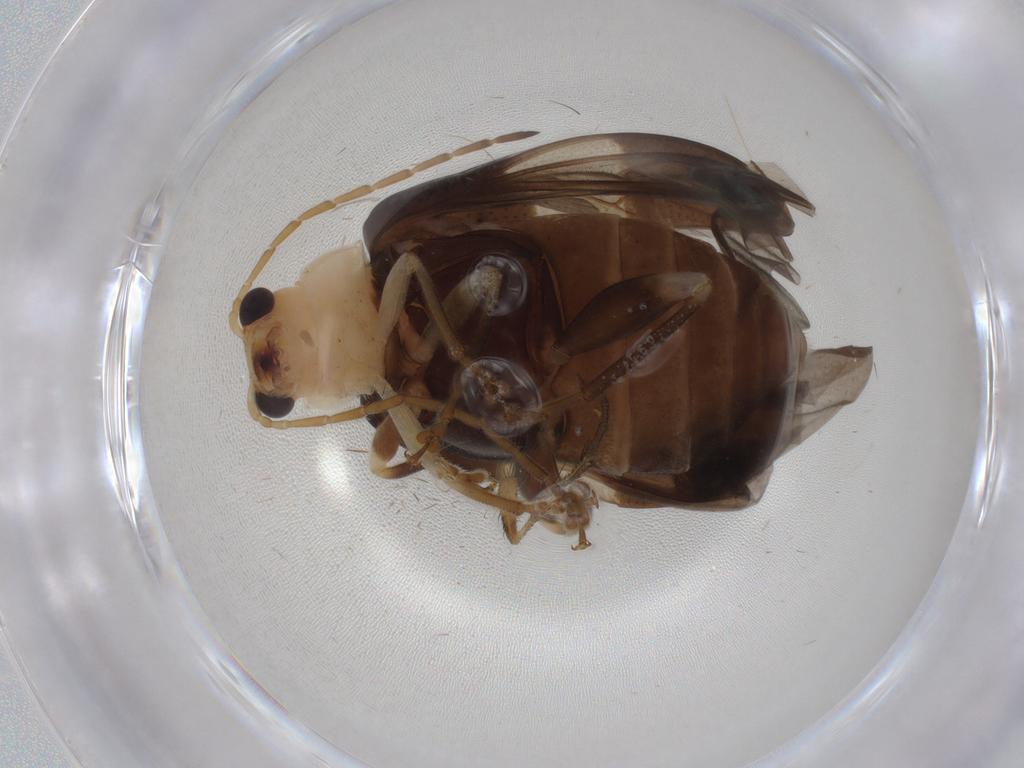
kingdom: Animalia
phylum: Arthropoda
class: Insecta
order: Coleoptera
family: Chrysomelidae
